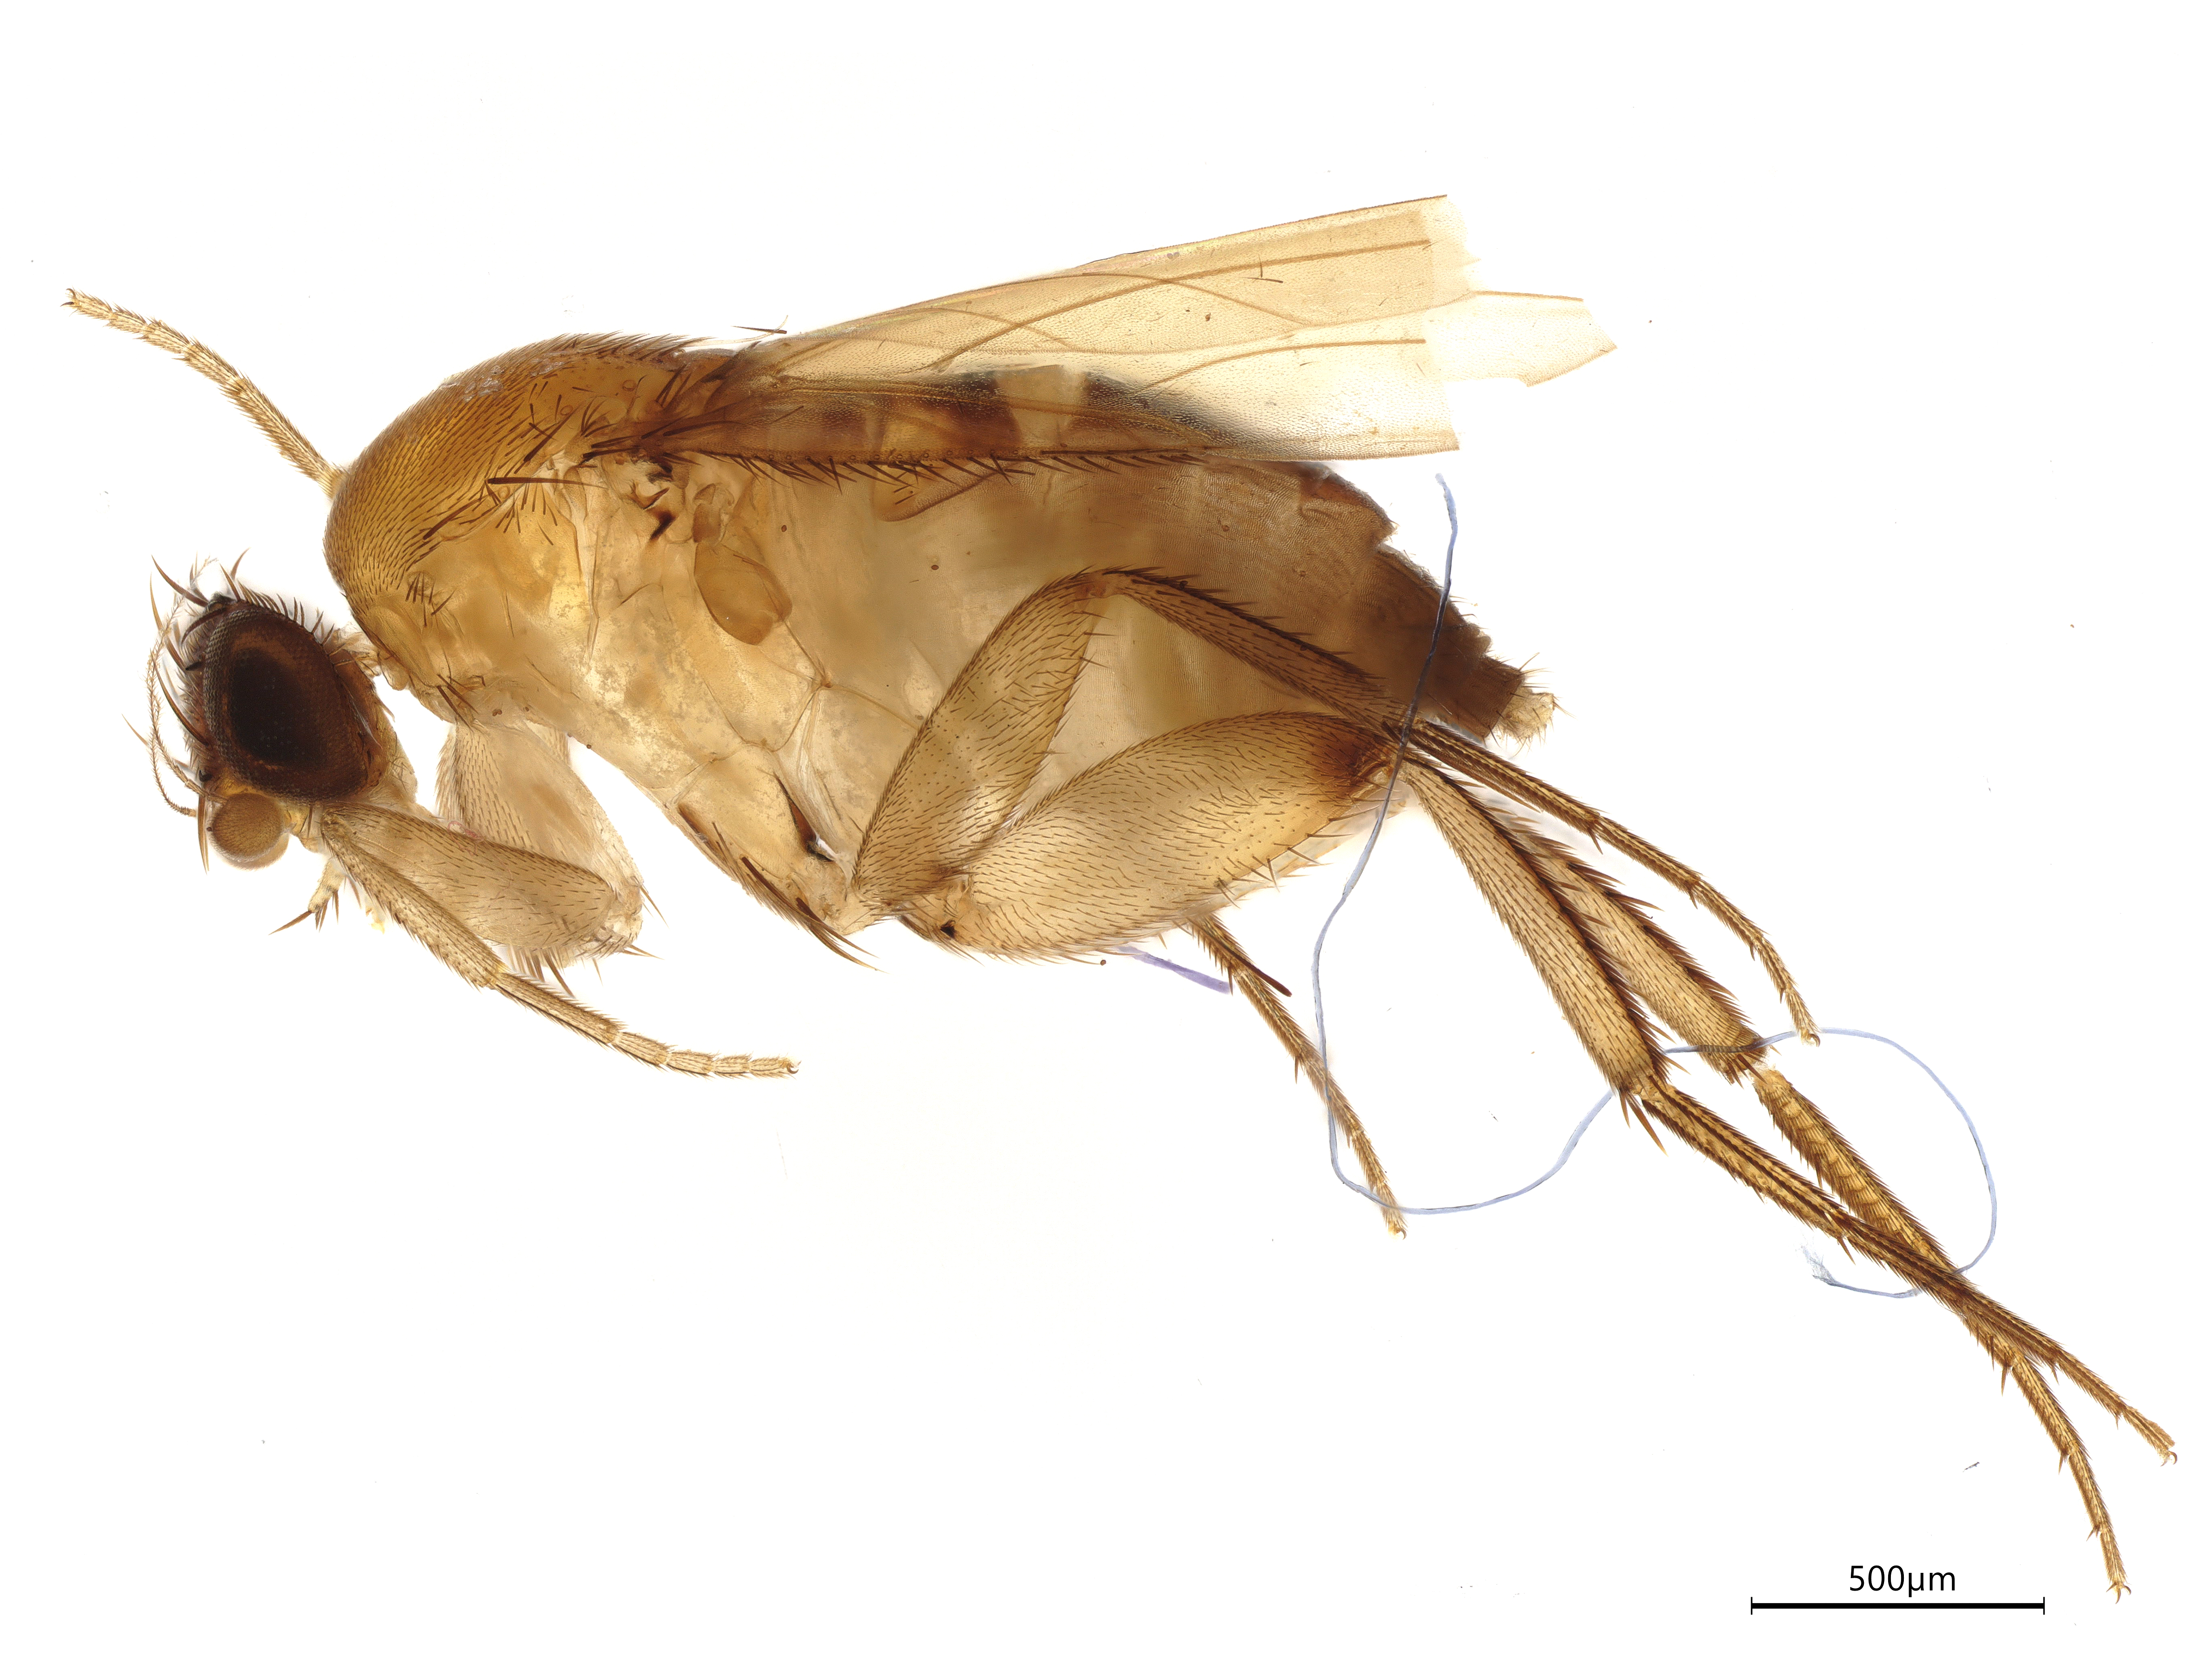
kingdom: Animalia
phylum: Arthropoda
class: Insecta
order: Diptera
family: Phoridae
